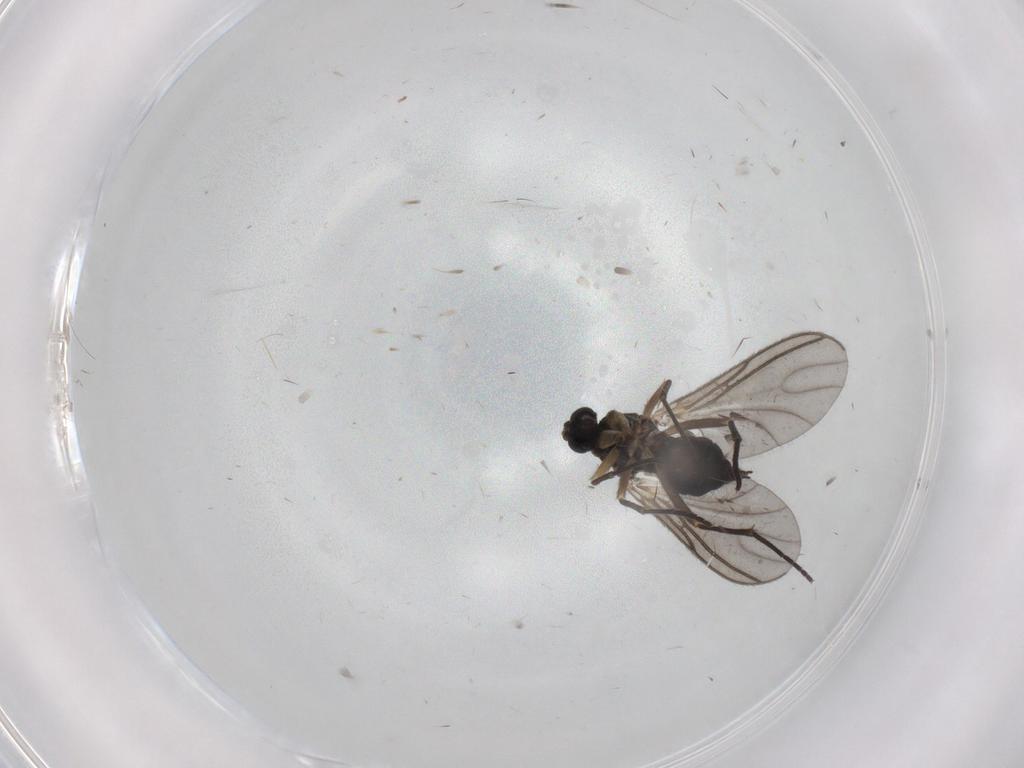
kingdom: Animalia
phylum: Arthropoda
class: Insecta
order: Diptera
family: Sciaridae
